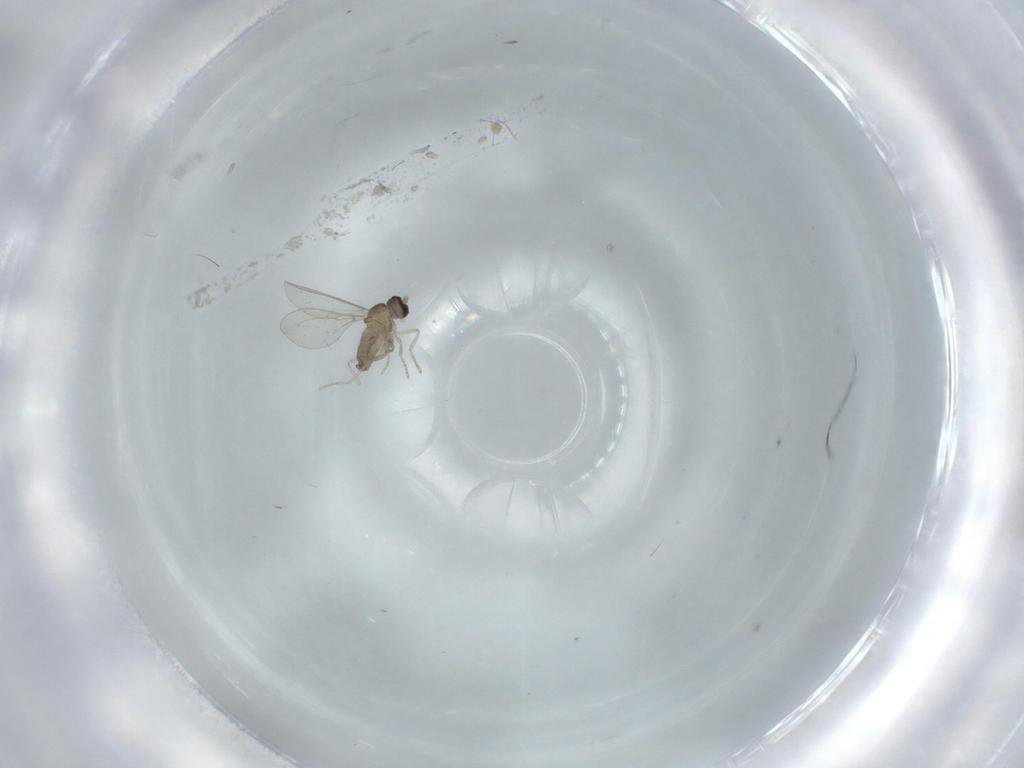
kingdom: Animalia
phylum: Arthropoda
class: Insecta
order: Diptera
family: Cecidomyiidae
